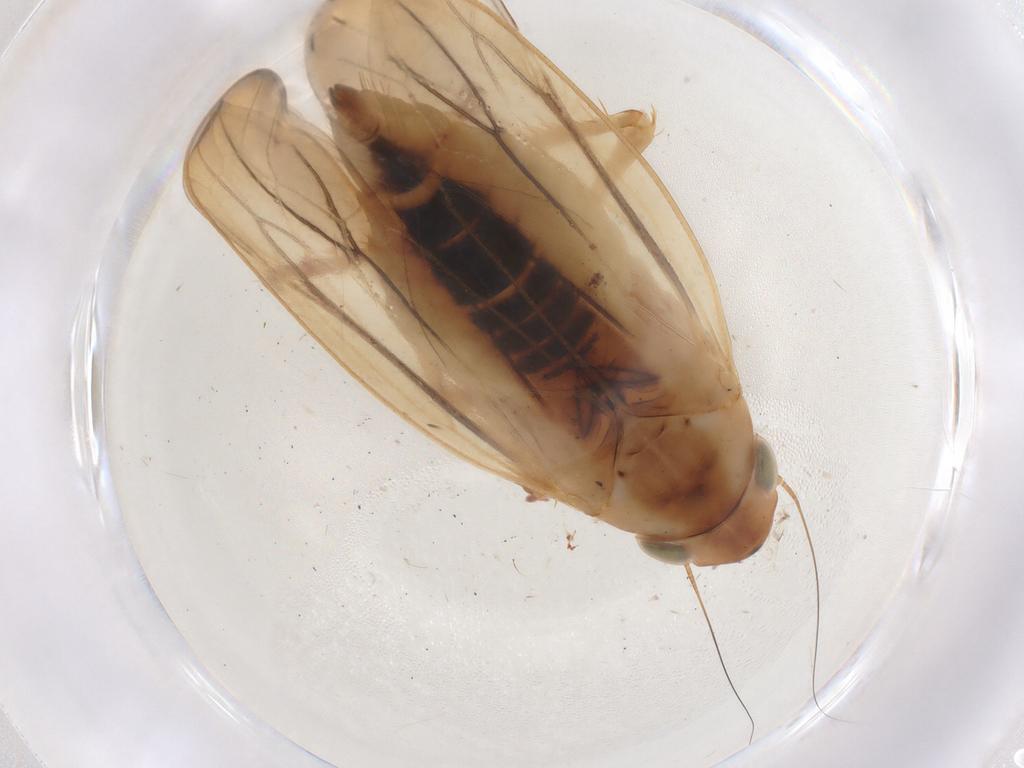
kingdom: Animalia
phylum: Arthropoda
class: Insecta
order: Hemiptera
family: Cicadellidae
